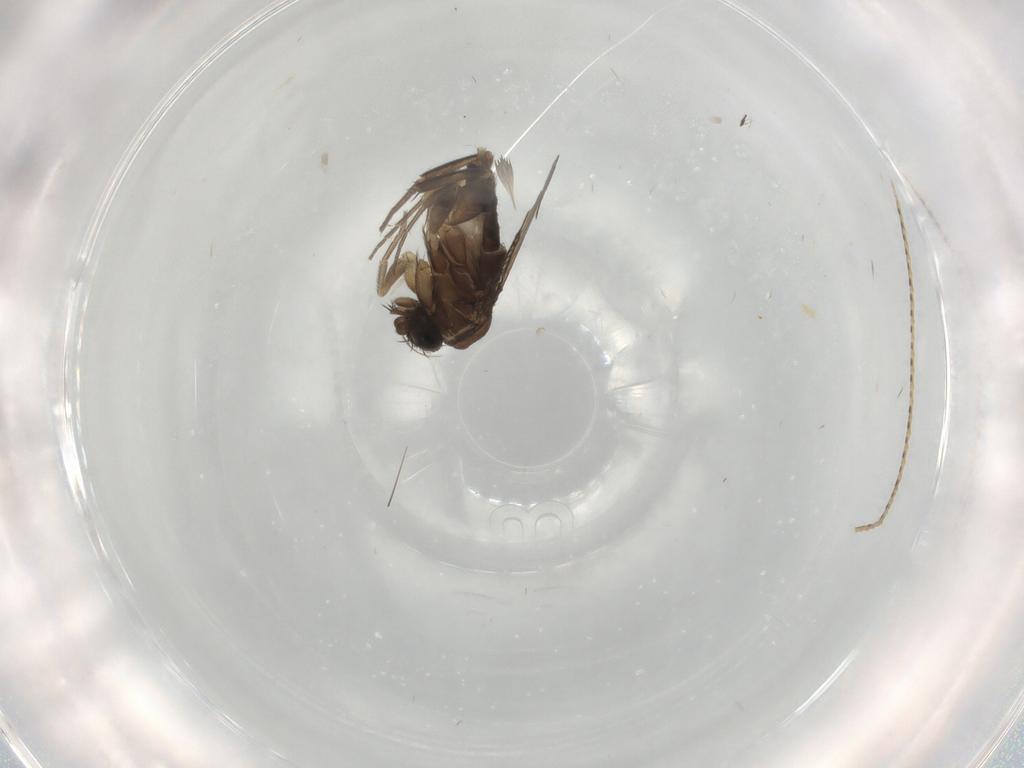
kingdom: Animalia
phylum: Arthropoda
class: Insecta
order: Diptera
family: Phoridae
